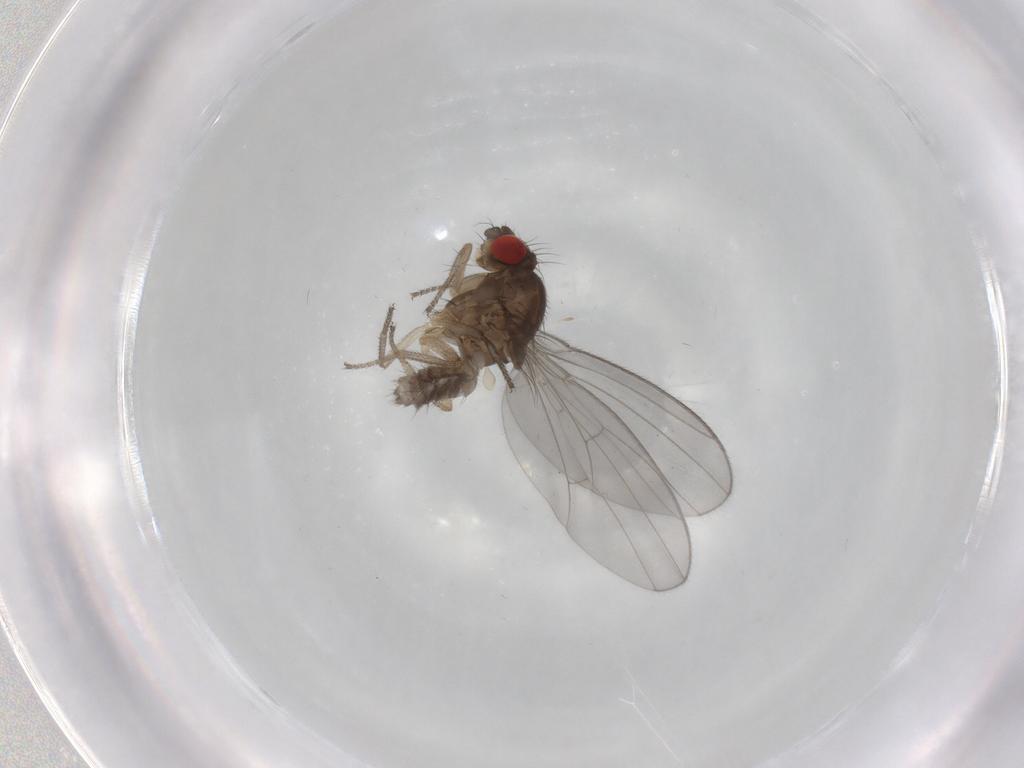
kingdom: Animalia
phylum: Arthropoda
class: Insecta
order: Diptera
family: Drosophilidae
